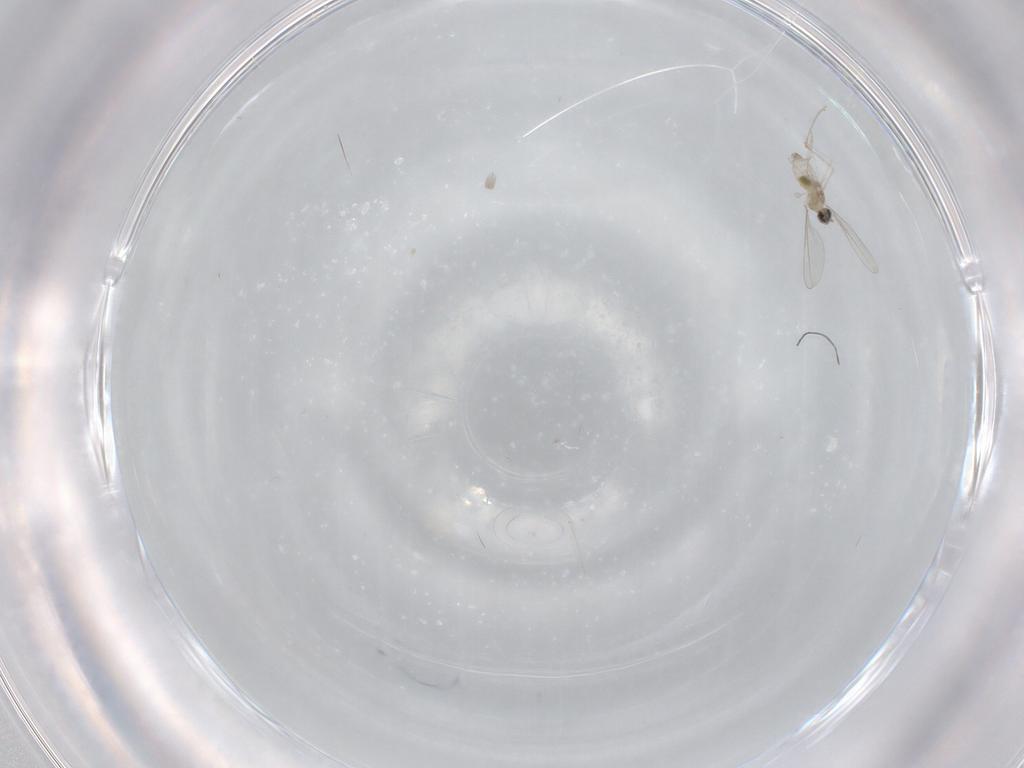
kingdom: Animalia
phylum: Arthropoda
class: Insecta
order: Diptera
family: Cecidomyiidae
